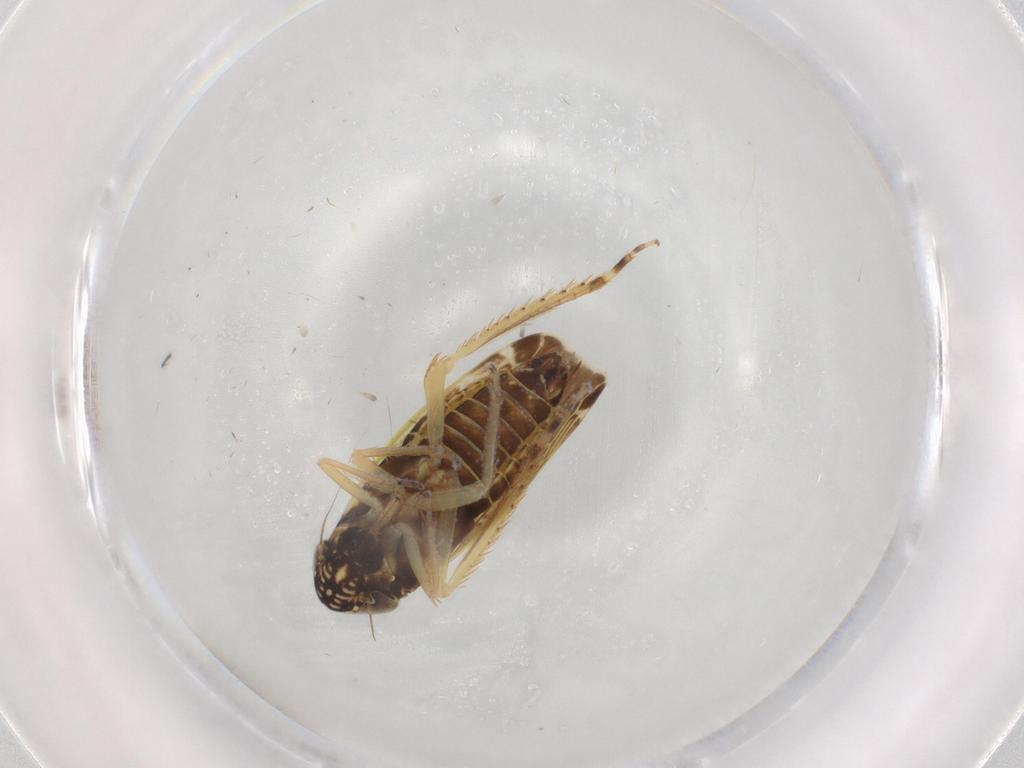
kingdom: Animalia
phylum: Arthropoda
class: Insecta
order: Hemiptera
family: Cicadellidae
